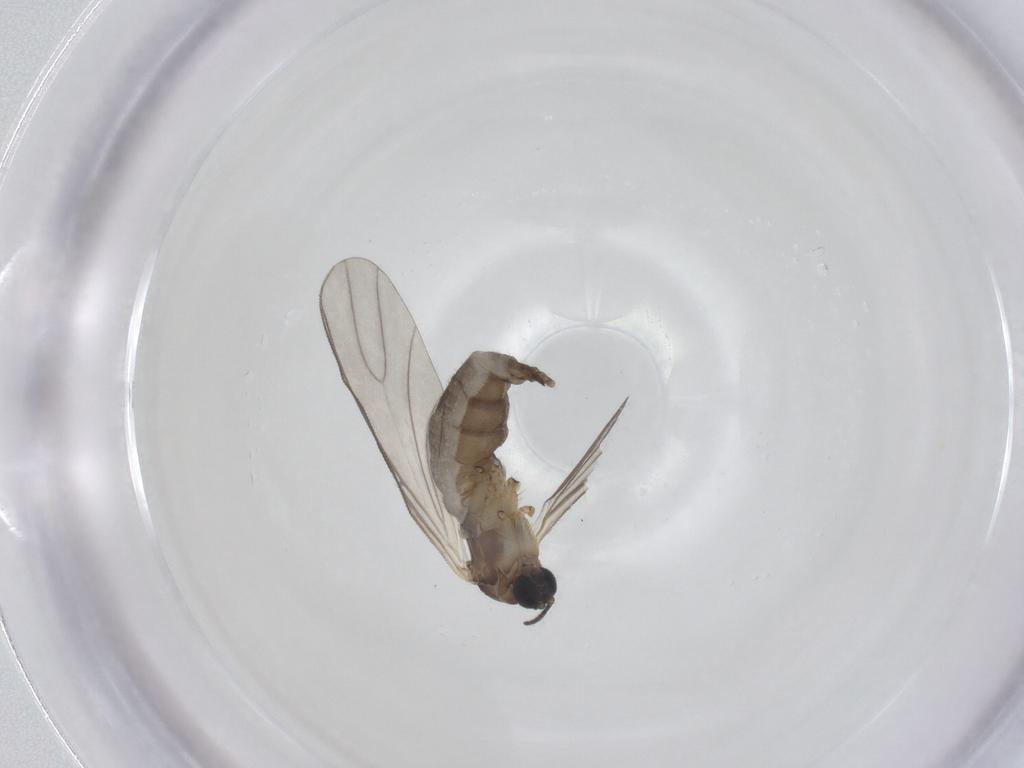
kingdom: Animalia
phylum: Arthropoda
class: Insecta
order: Diptera
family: Sciaridae
